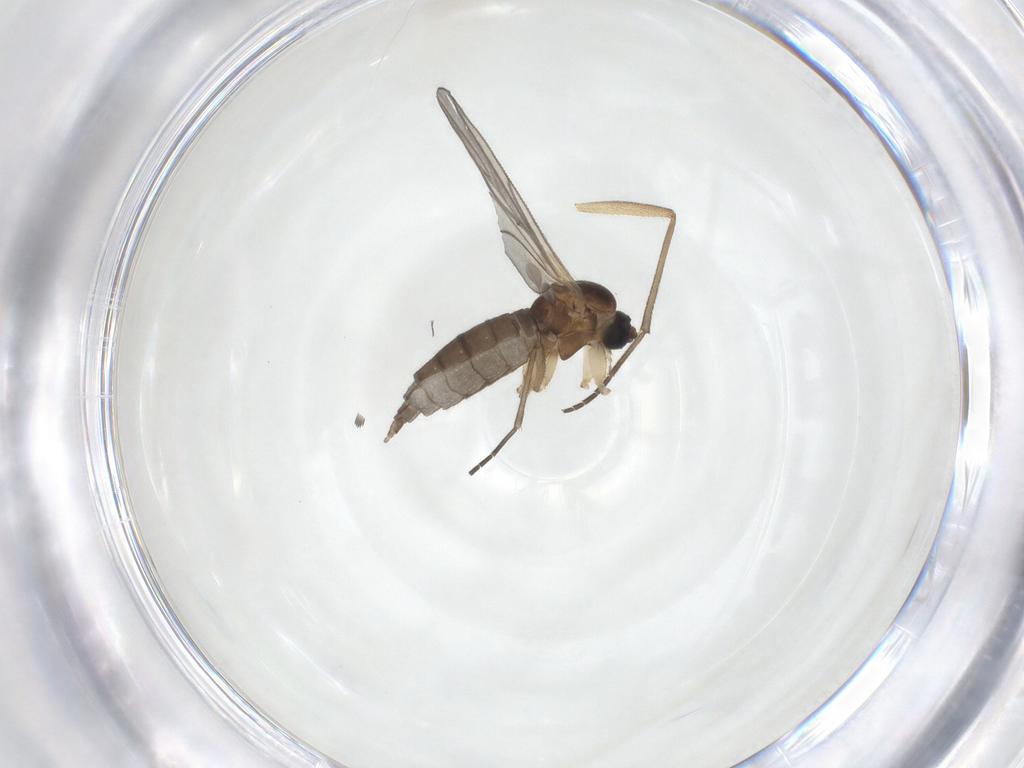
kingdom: Animalia
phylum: Arthropoda
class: Insecta
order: Diptera
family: Sciaridae
